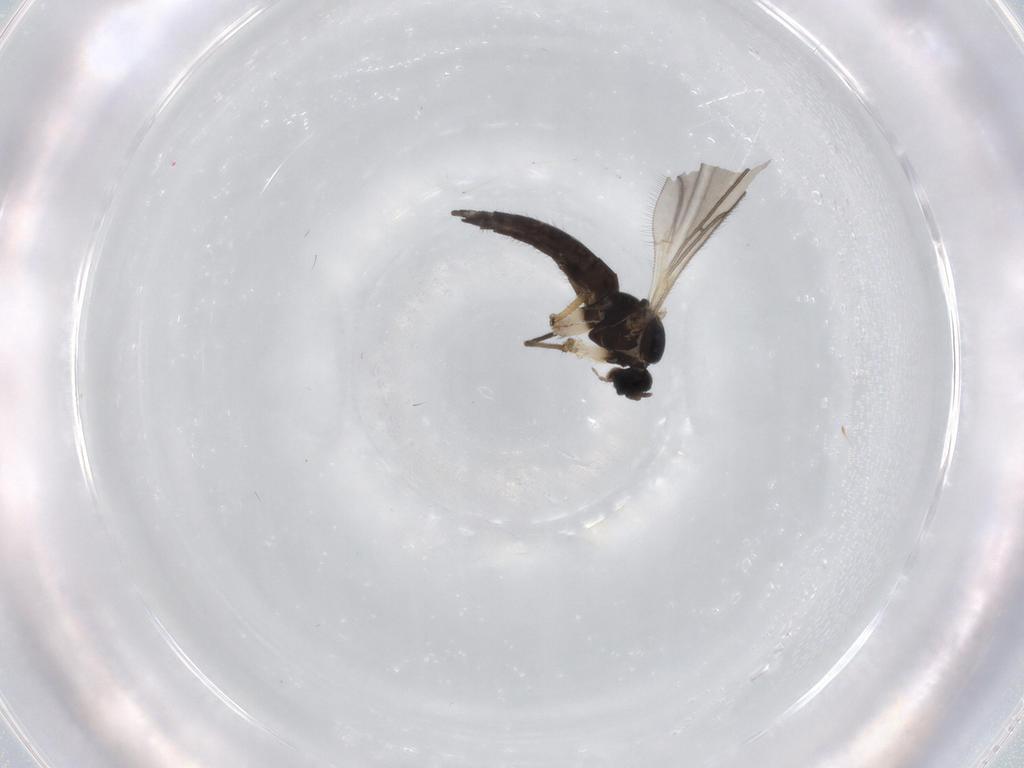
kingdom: Animalia
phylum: Arthropoda
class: Insecta
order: Diptera
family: Sciaridae
